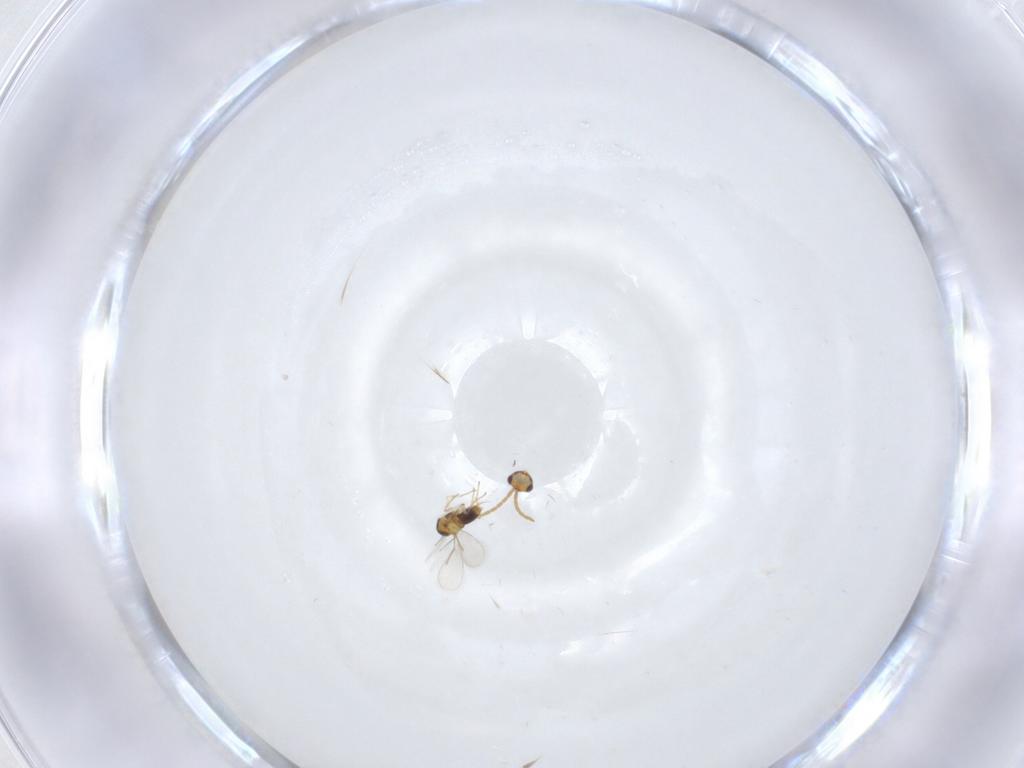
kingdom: Animalia
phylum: Arthropoda
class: Insecta
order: Hymenoptera
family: Aphelinidae
